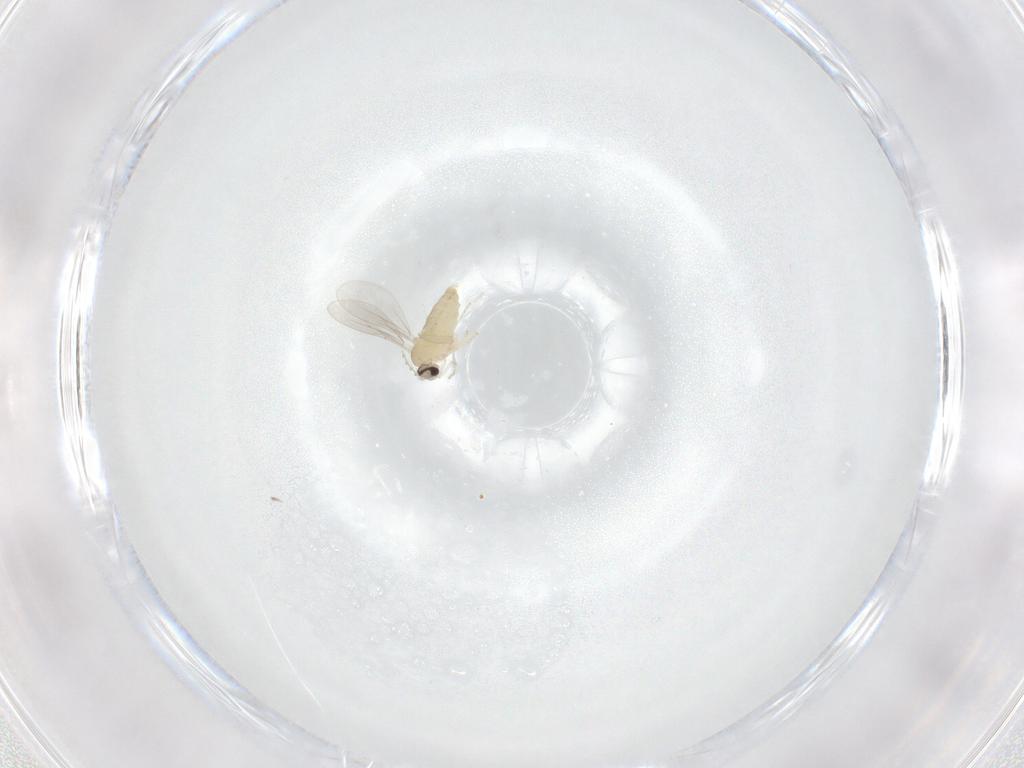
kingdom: Animalia
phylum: Arthropoda
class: Insecta
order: Diptera
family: Cecidomyiidae
